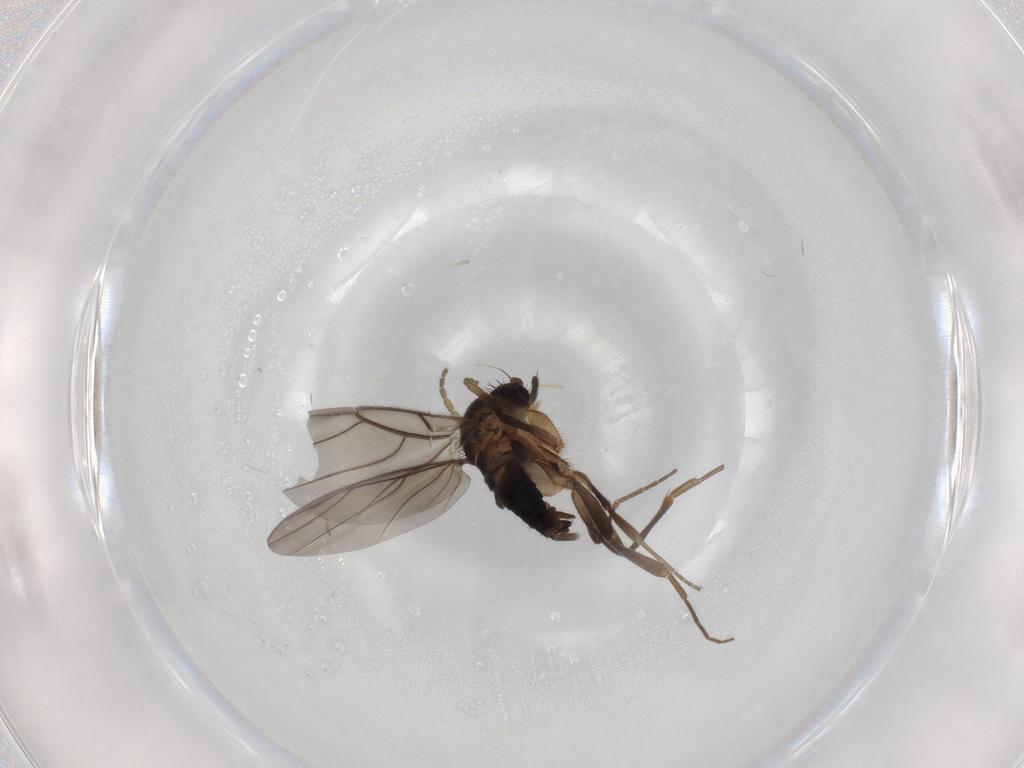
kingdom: Animalia
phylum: Arthropoda
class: Insecta
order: Diptera
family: Phoridae
